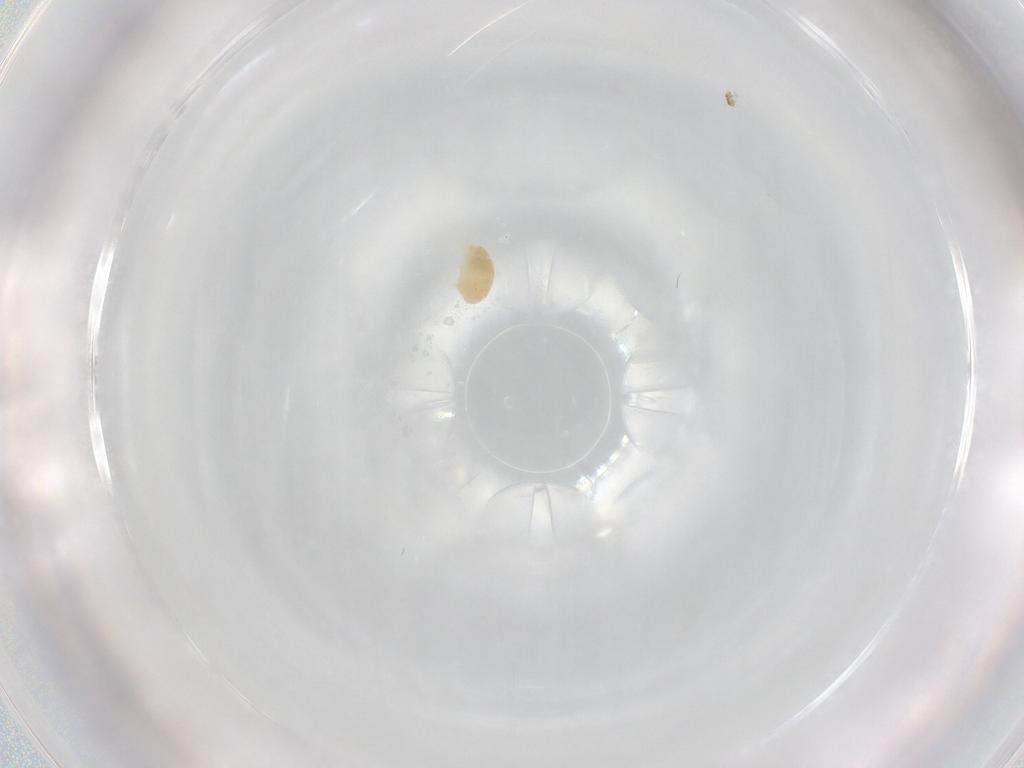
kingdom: Animalia
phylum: Arthropoda
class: Arachnida
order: Trombidiformes
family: Eupodidae
